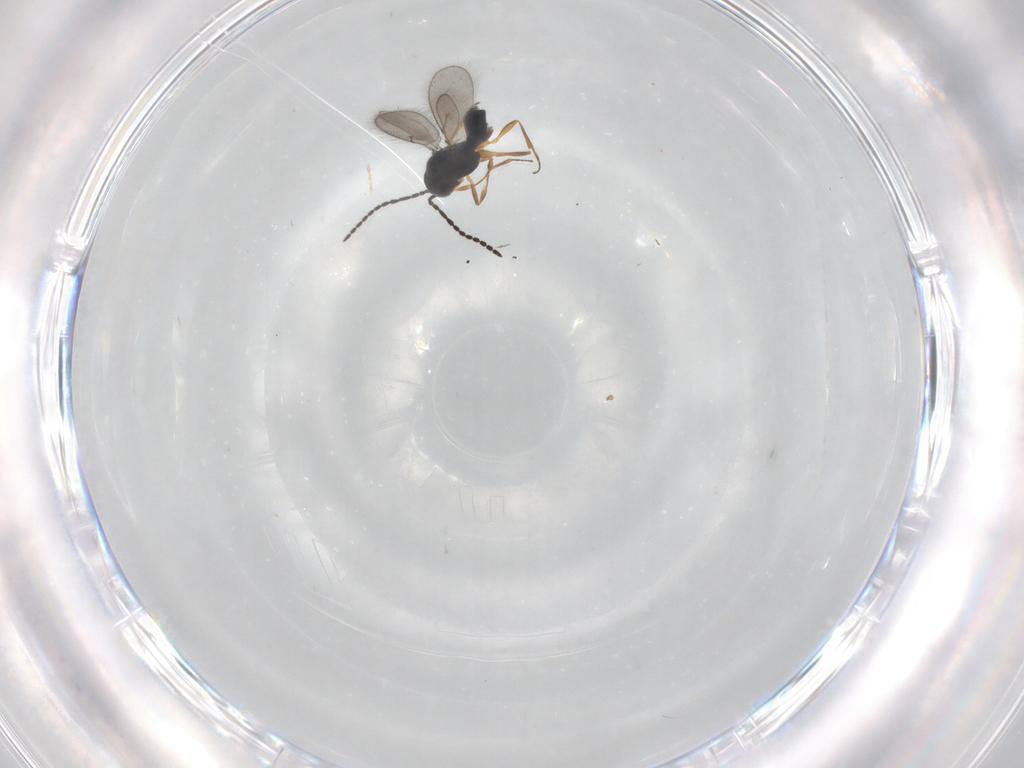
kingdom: Animalia
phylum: Arthropoda
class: Insecta
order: Hymenoptera
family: Scelionidae
